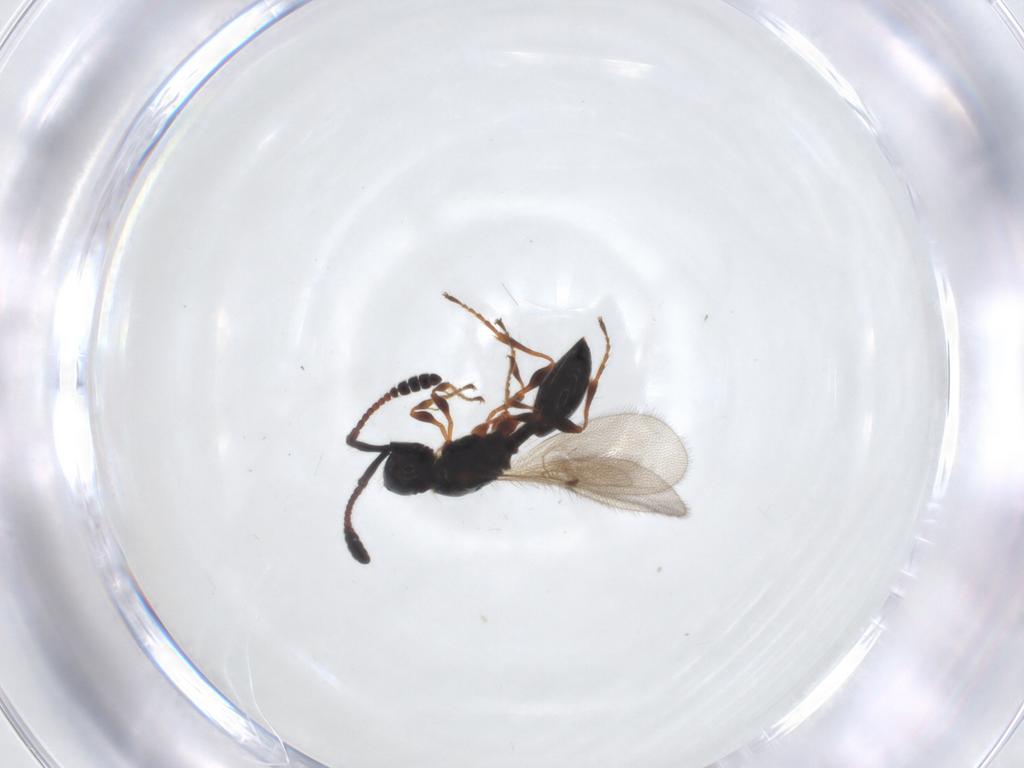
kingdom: Animalia
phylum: Arthropoda
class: Insecta
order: Hymenoptera
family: Diapriidae
